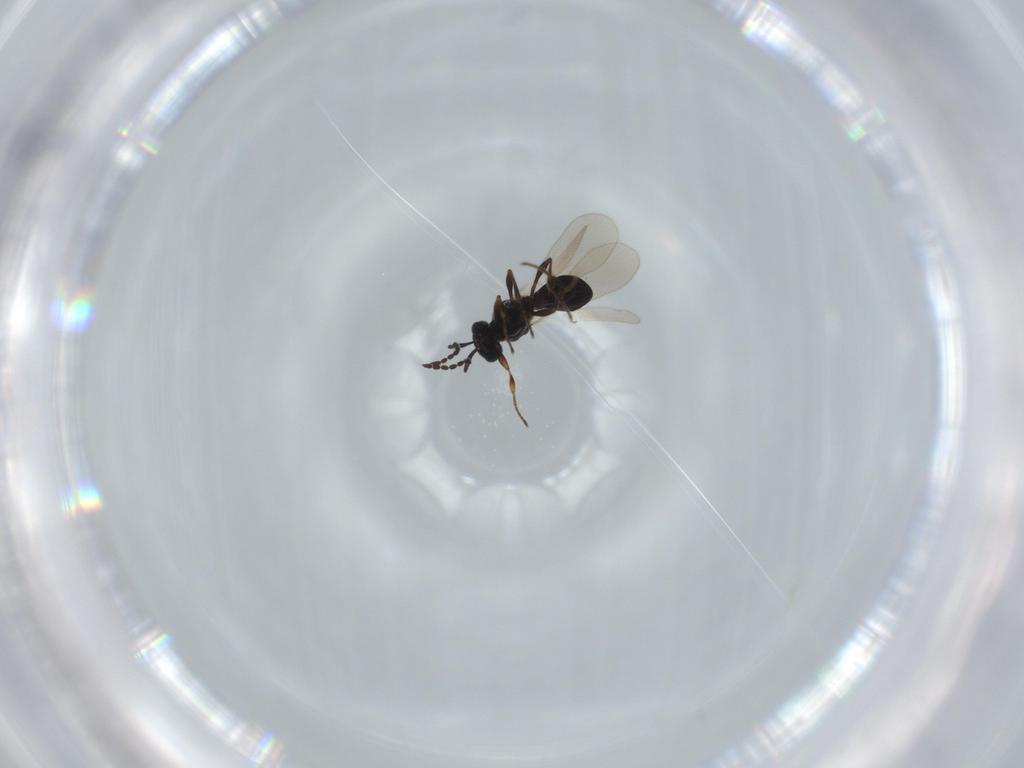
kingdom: Animalia
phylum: Arthropoda
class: Insecta
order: Hymenoptera
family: Platygastridae
